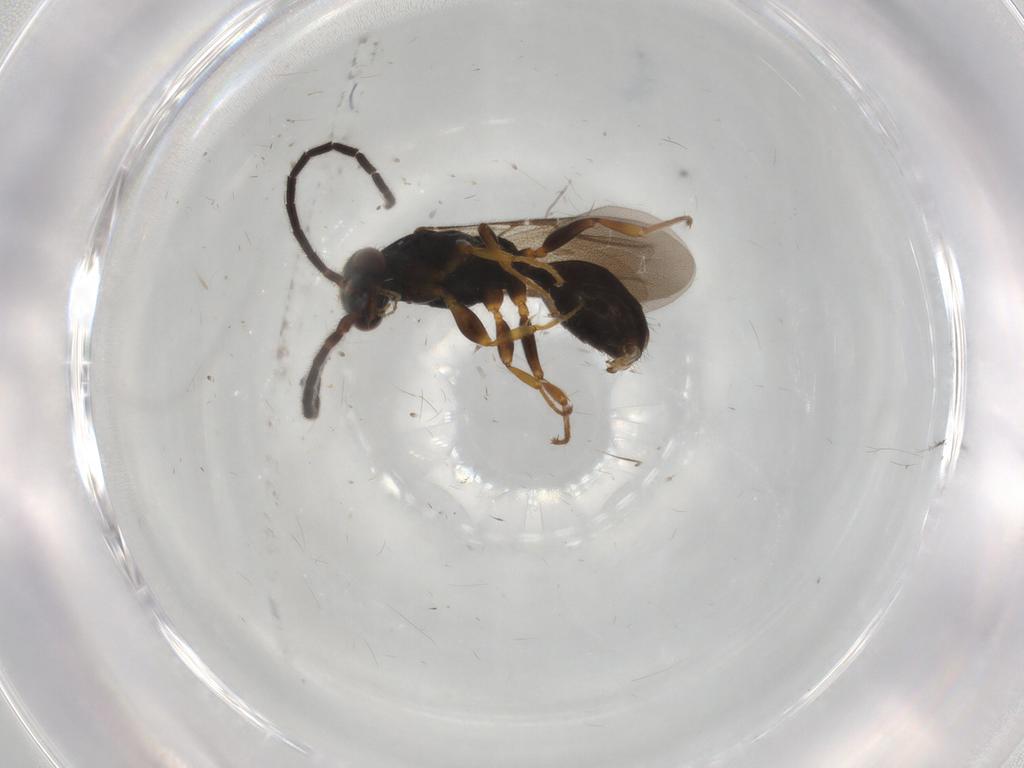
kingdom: Animalia
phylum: Arthropoda
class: Insecta
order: Hymenoptera
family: Bethylidae
